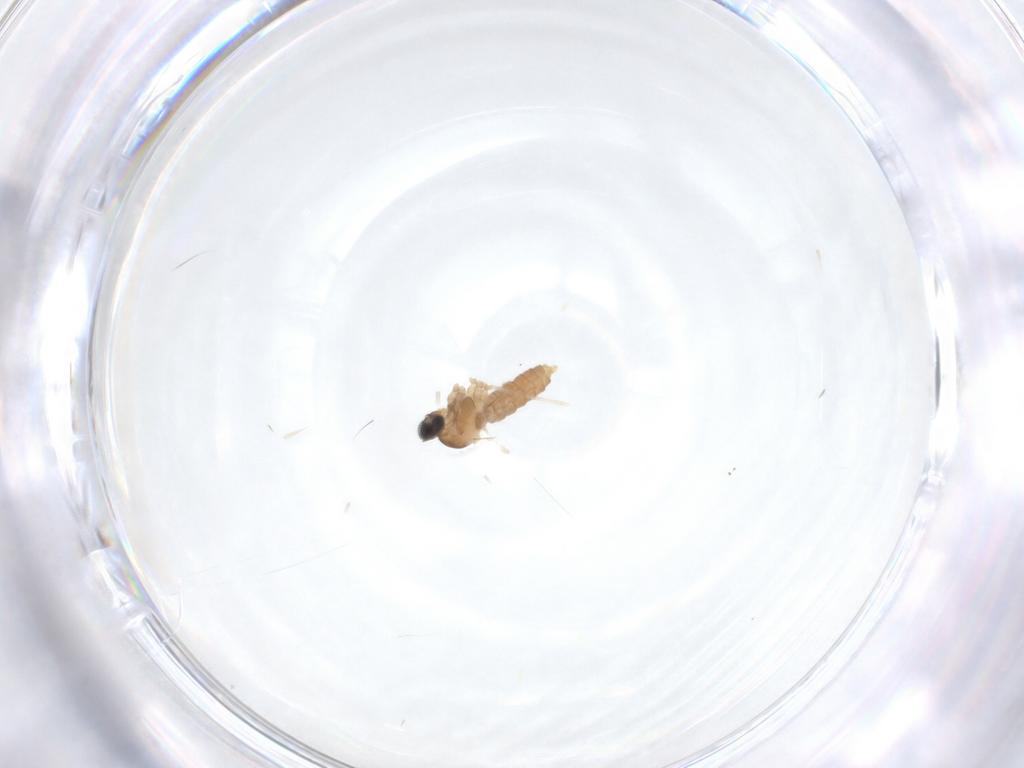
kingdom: Animalia
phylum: Arthropoda
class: Insecta
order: Diptera
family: Cecidomyiidae
